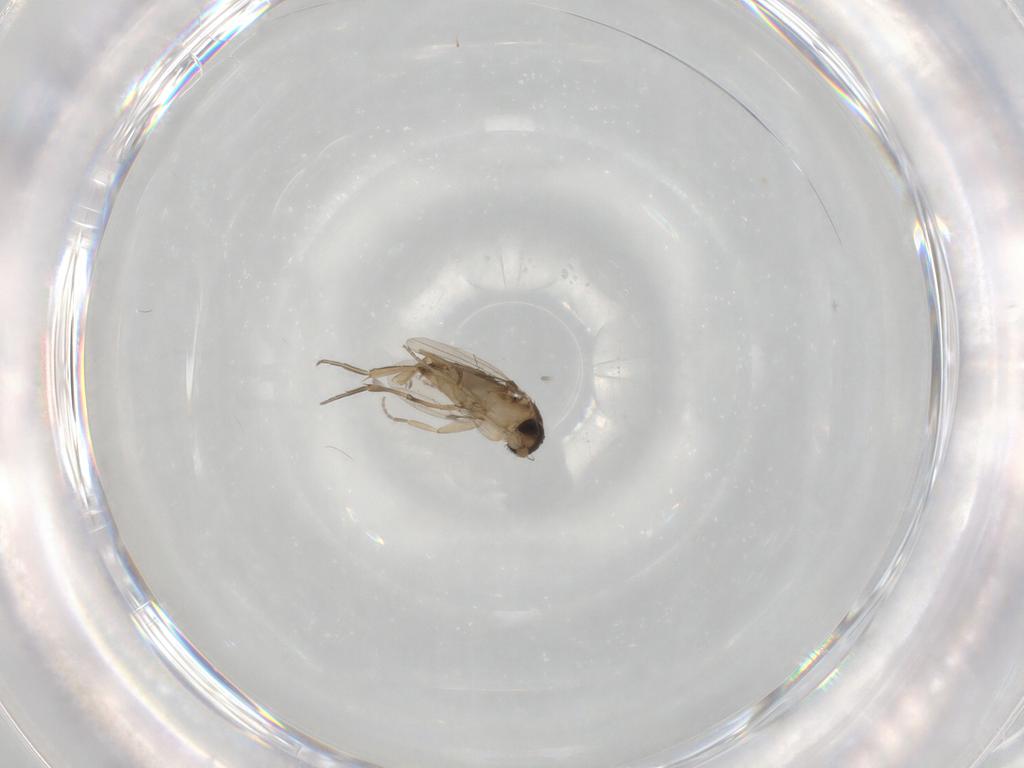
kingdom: Animalia
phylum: Arthropoda
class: Insecta
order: Diptera
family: Phoridae
